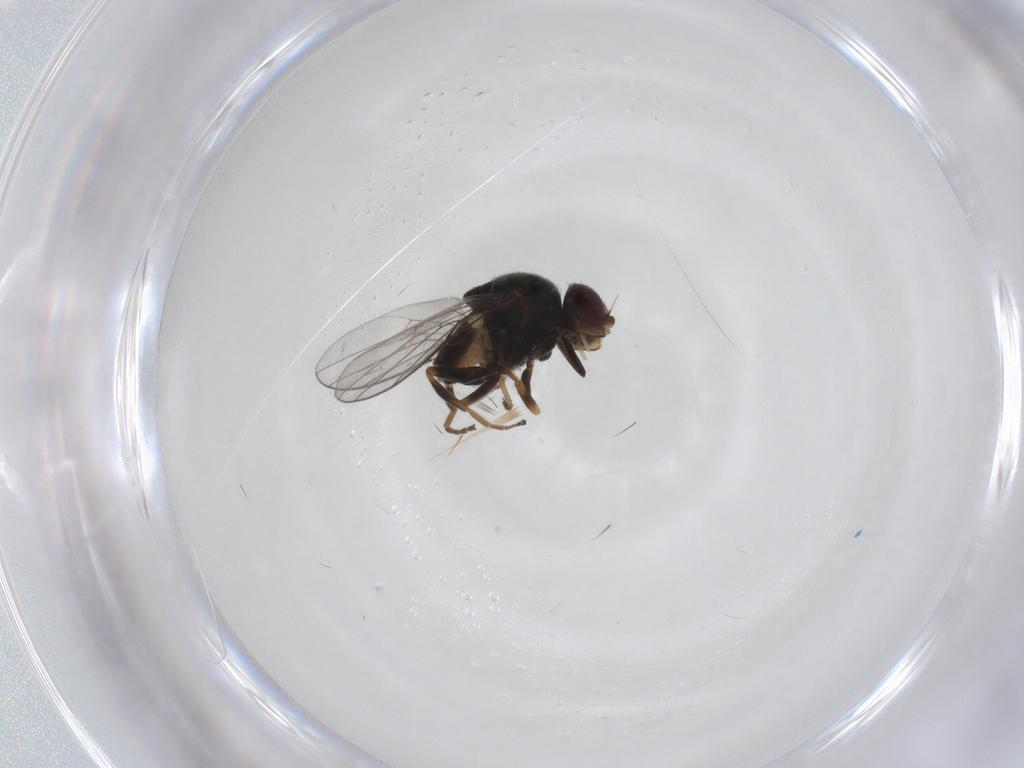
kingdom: Animalia
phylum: Arthropoda
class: Insecta
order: Diptera
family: Chloropidae
